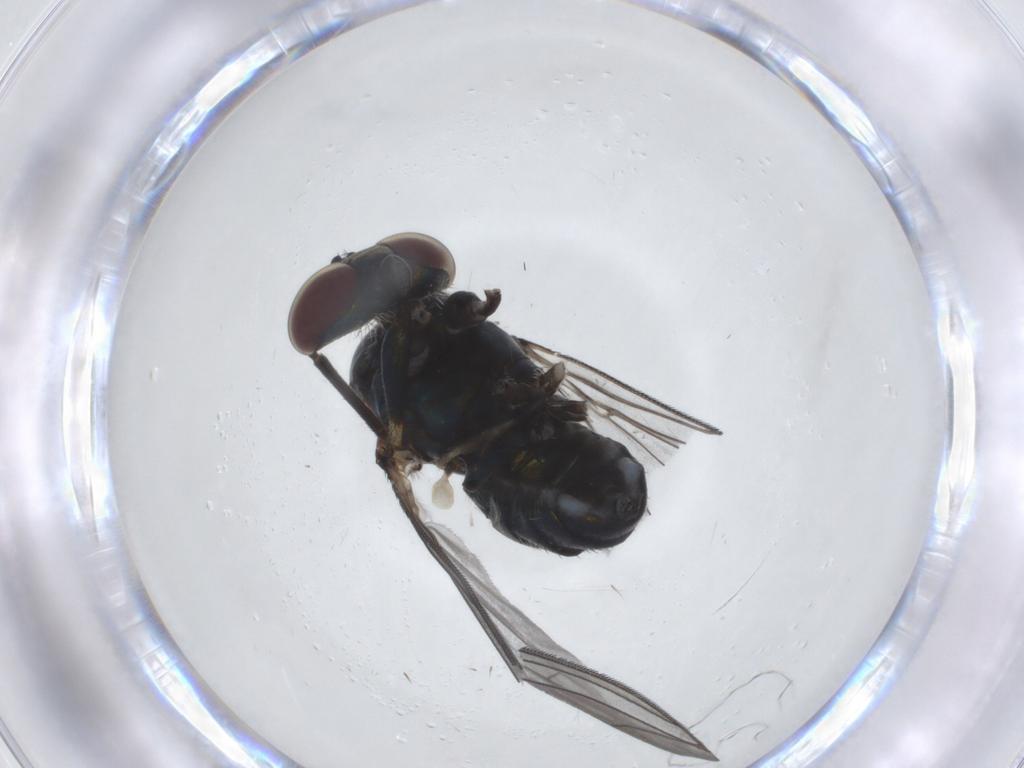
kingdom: Animalia
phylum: Arthropoda
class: Insecta
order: Diptera
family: Dolichopodidae
